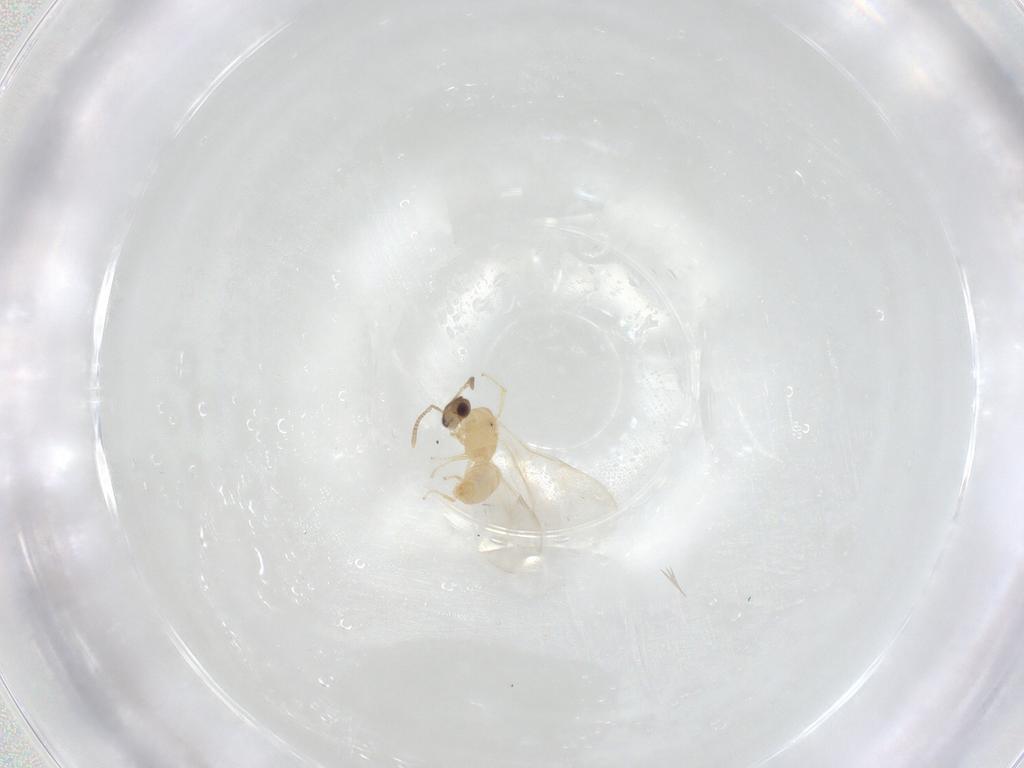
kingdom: Animalia
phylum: Arthropoda
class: Insecta
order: Hymenoptera
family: Formicidae
